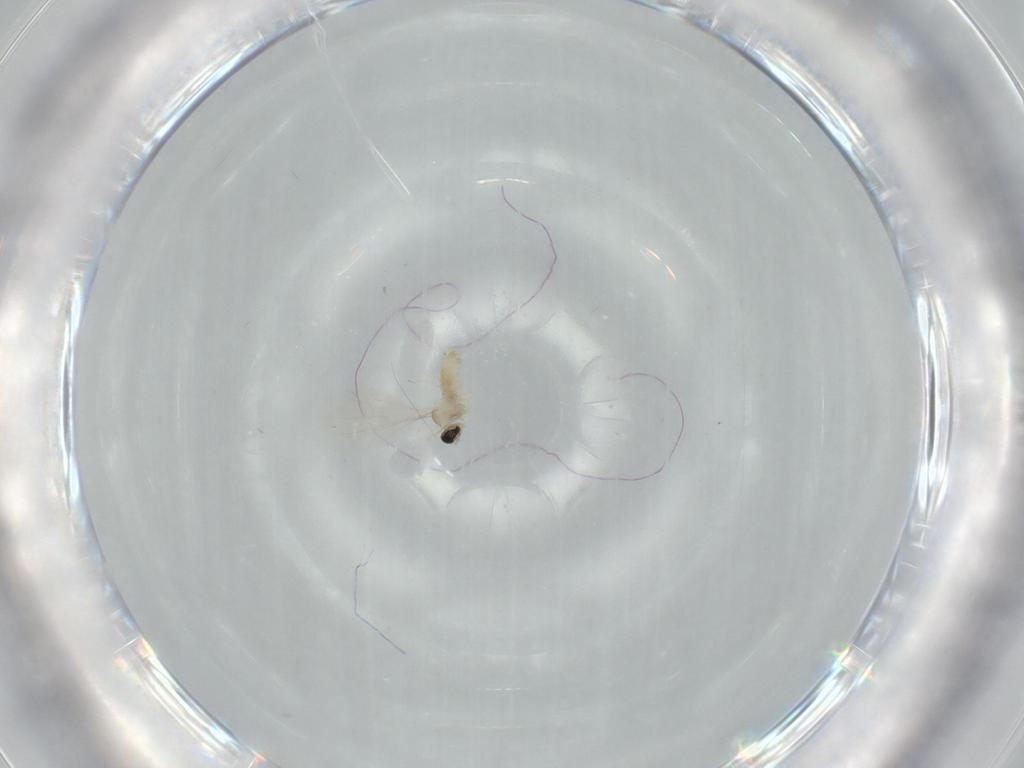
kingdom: Animalia
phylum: Arthropoda
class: Insecta
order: Diptera
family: Cecidomyiidae
